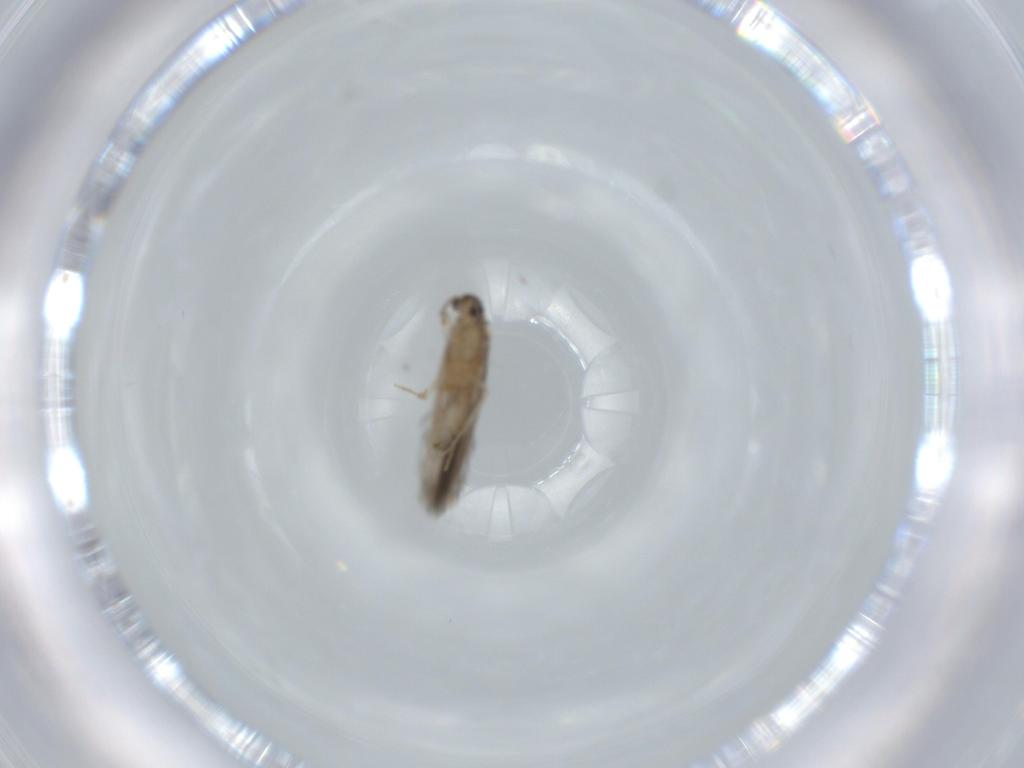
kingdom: Animalia
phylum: Arthropoda
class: Insecta
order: Trichoptera
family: Hydroptilidae
